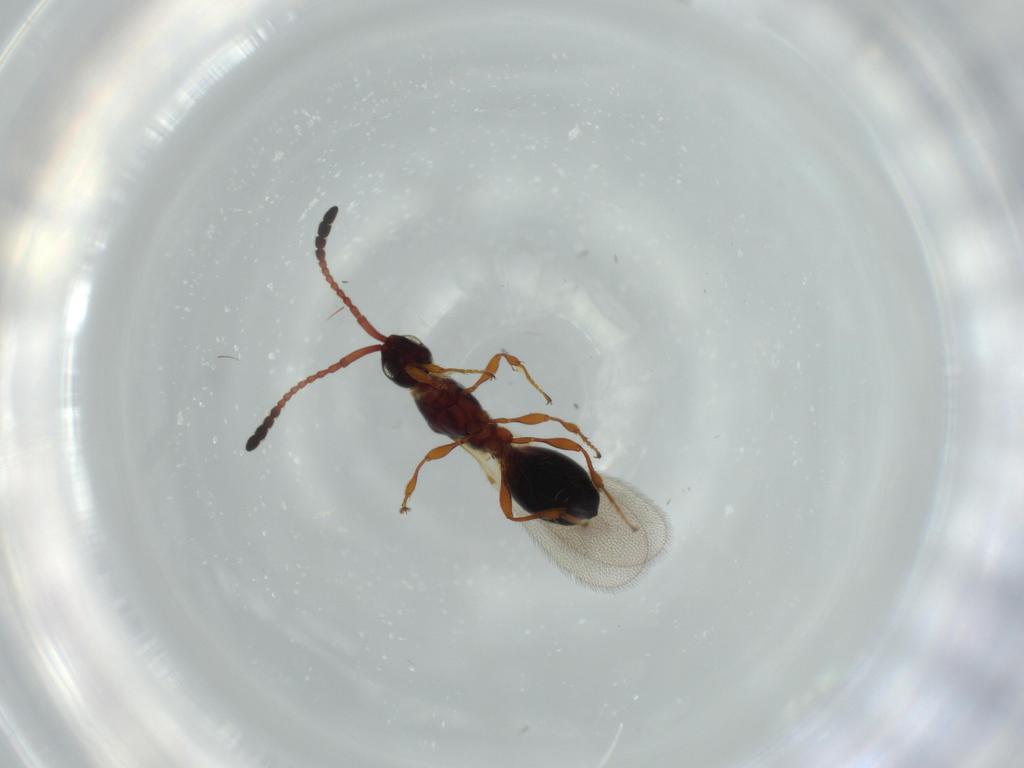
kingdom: Animalia
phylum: Arthropoda
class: Insecta
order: Hymenoptera
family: Diapriidae
